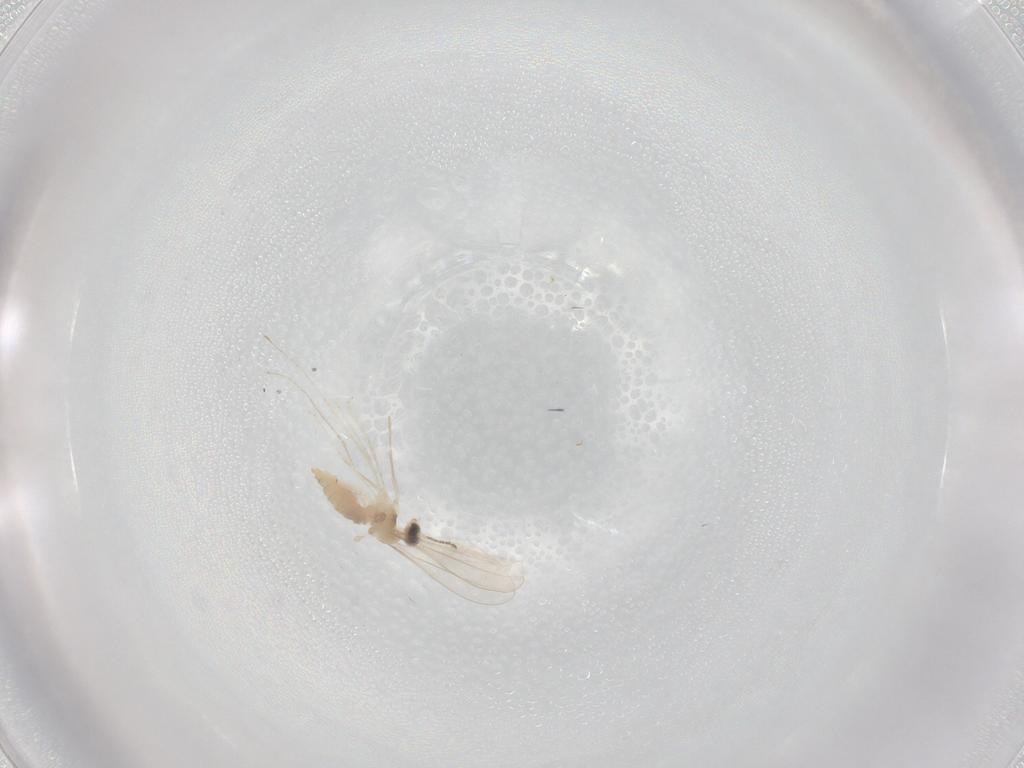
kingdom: Animalia
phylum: Arthropoda
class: Insecta
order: Diptera
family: Cecidomyiidae
